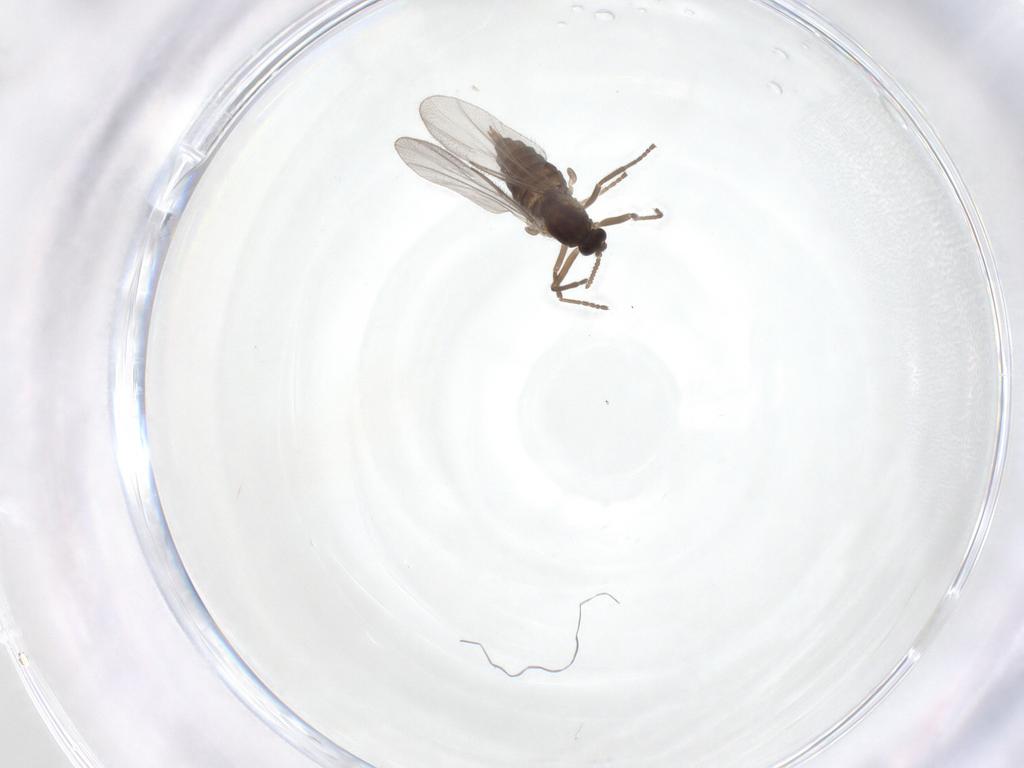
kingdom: Animalia
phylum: Arthropoda
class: Insecta
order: Diptera
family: Cecidomyiidae
